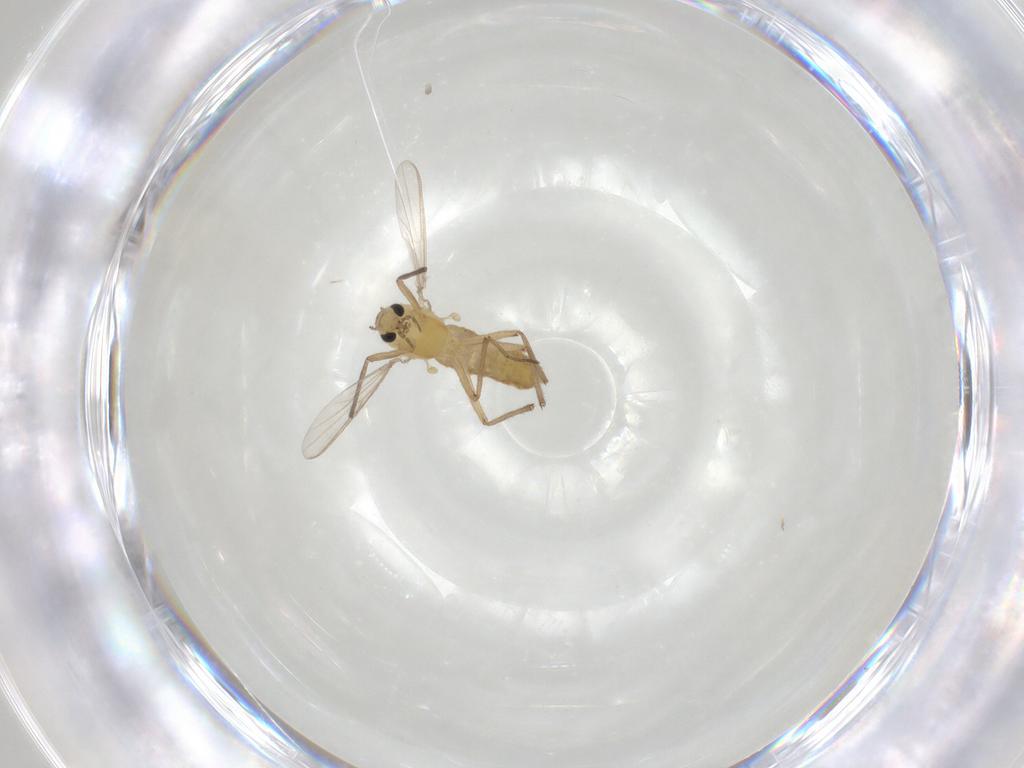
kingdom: Animalia
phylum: Arthropoda
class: Insecta
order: Diptera
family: Chironomidae
